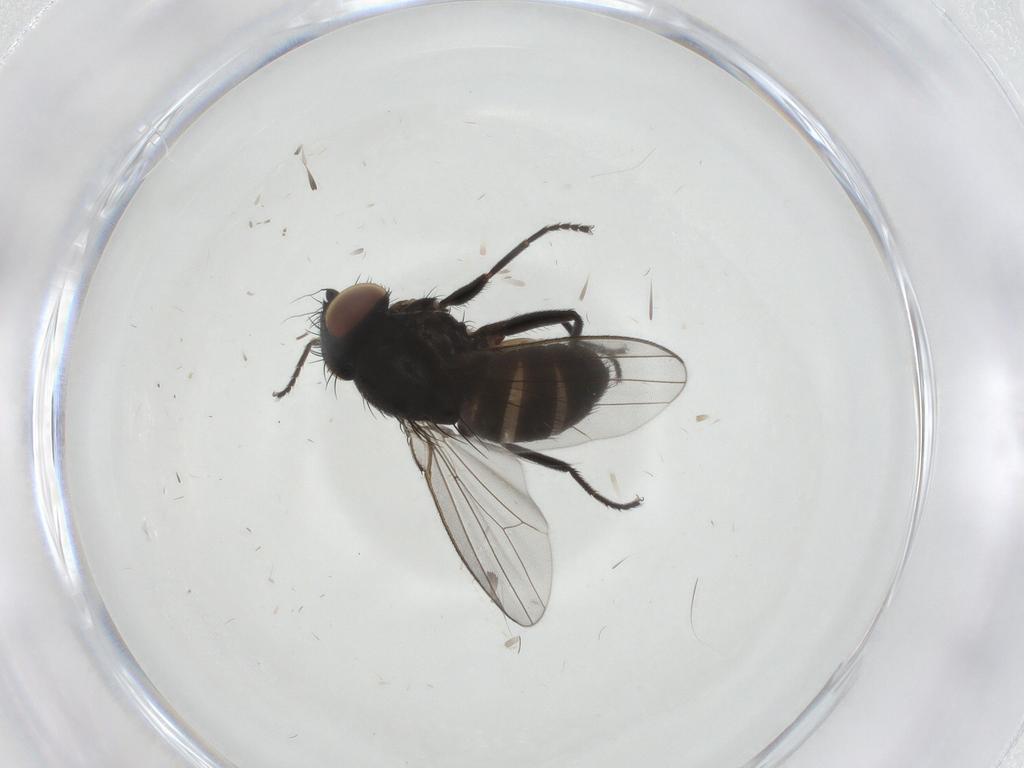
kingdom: Animalia
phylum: Arthropoda
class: Insecta
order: Diptera
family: Milichiidae
